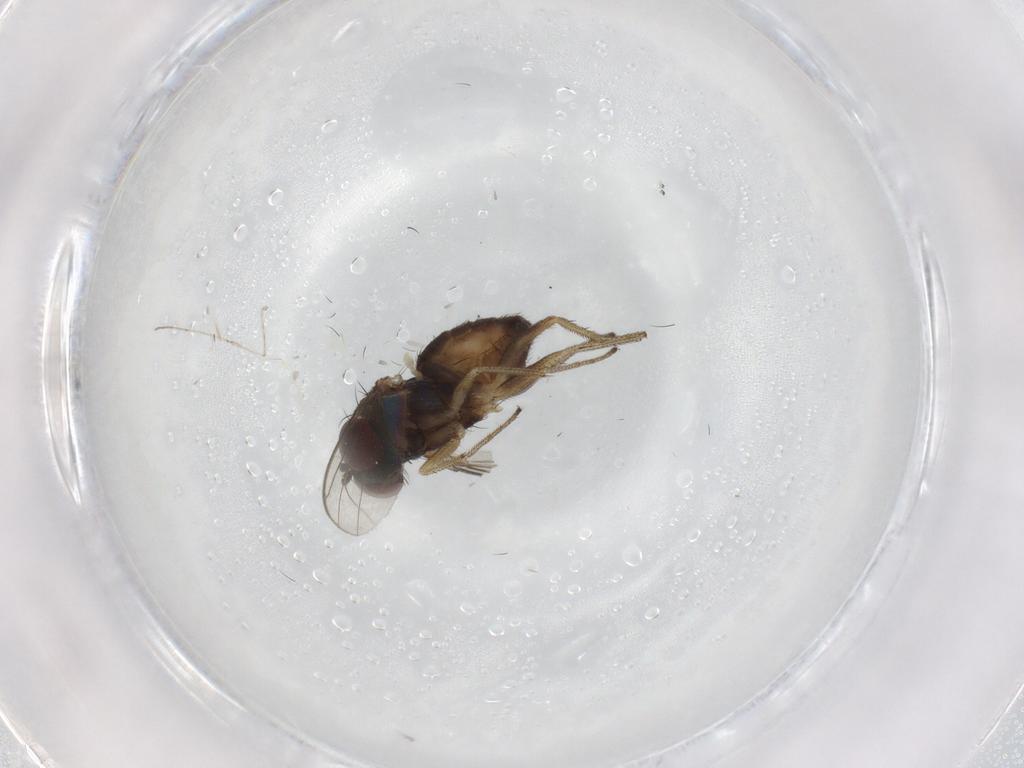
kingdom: Animalia
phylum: Arthropoda
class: Insecta
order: Diptera
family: Dolichopodidae
